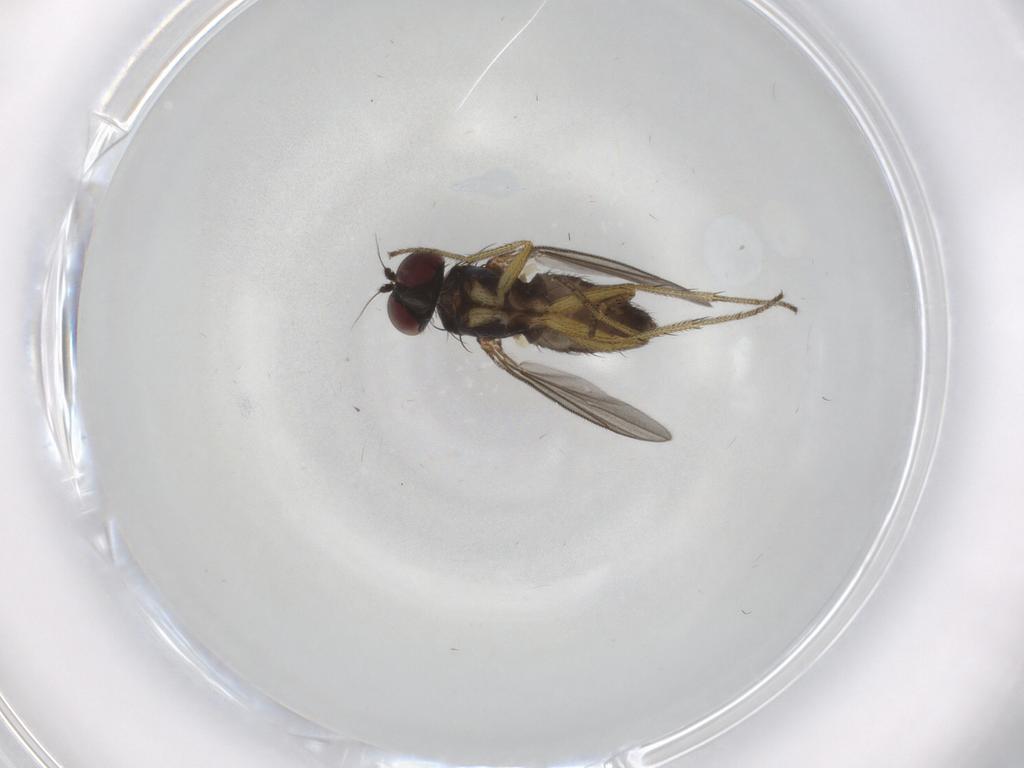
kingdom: Animalia
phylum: Arthropoda
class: Insecta
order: Diptera
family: Dolichopodidae
